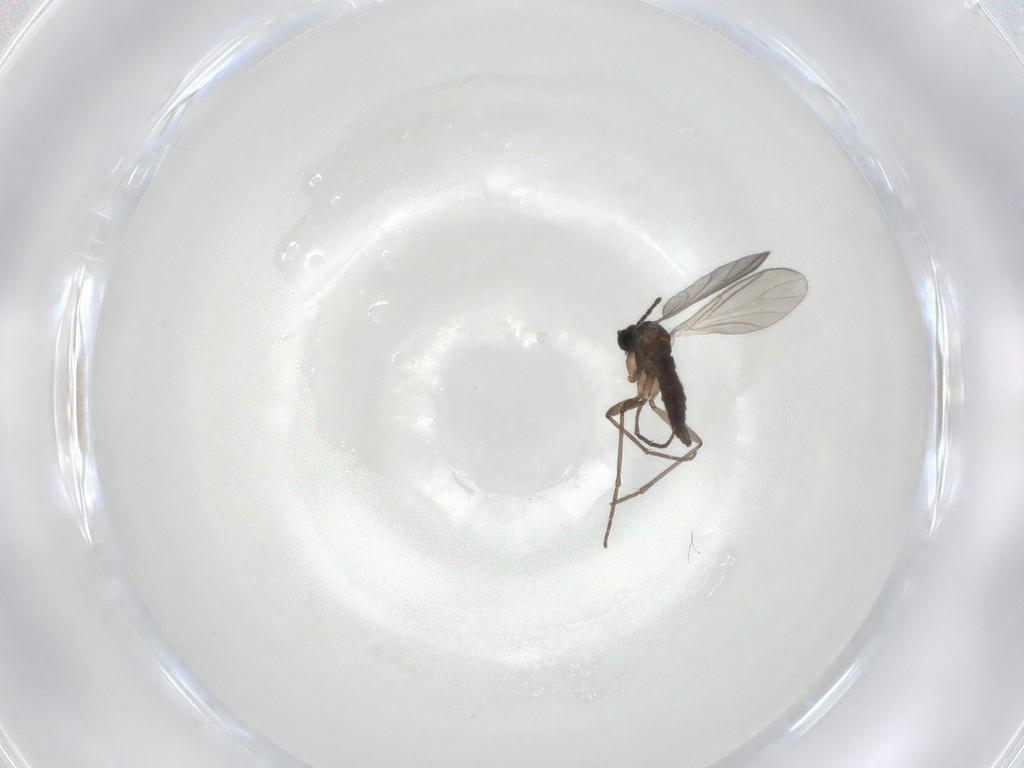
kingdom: Animalia
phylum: Arthropoda
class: Insecta
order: Diptera
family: Sciaridae
